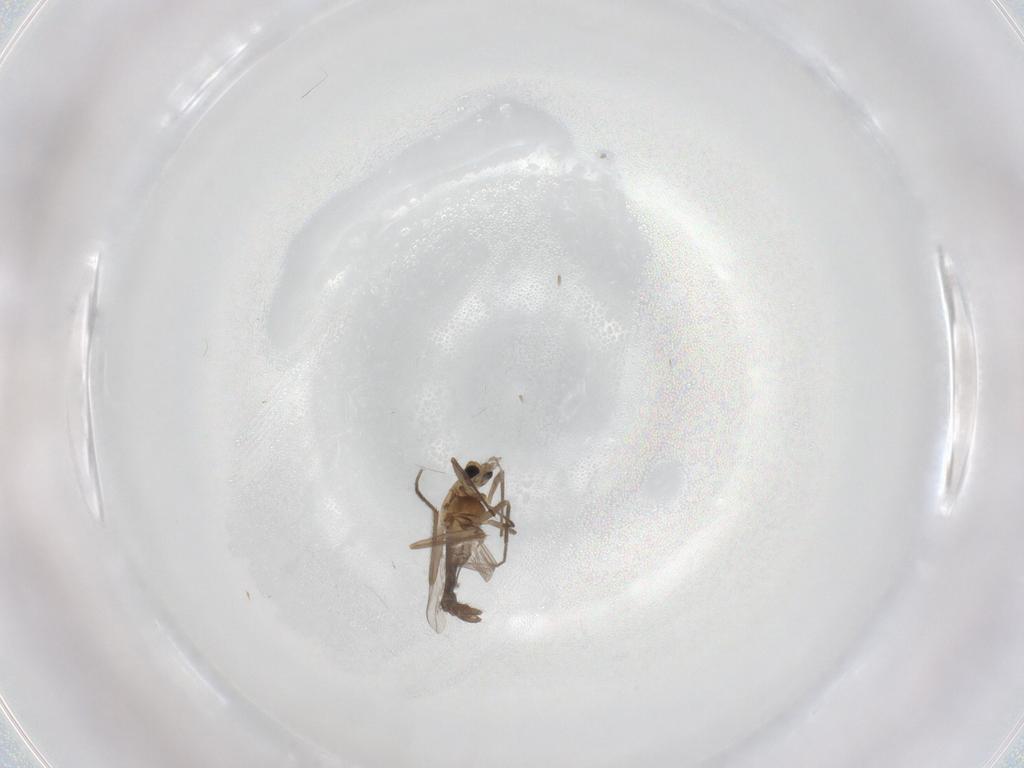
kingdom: Animalia
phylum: Arthropoda
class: Insecta
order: Diptera
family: Chironomidae
